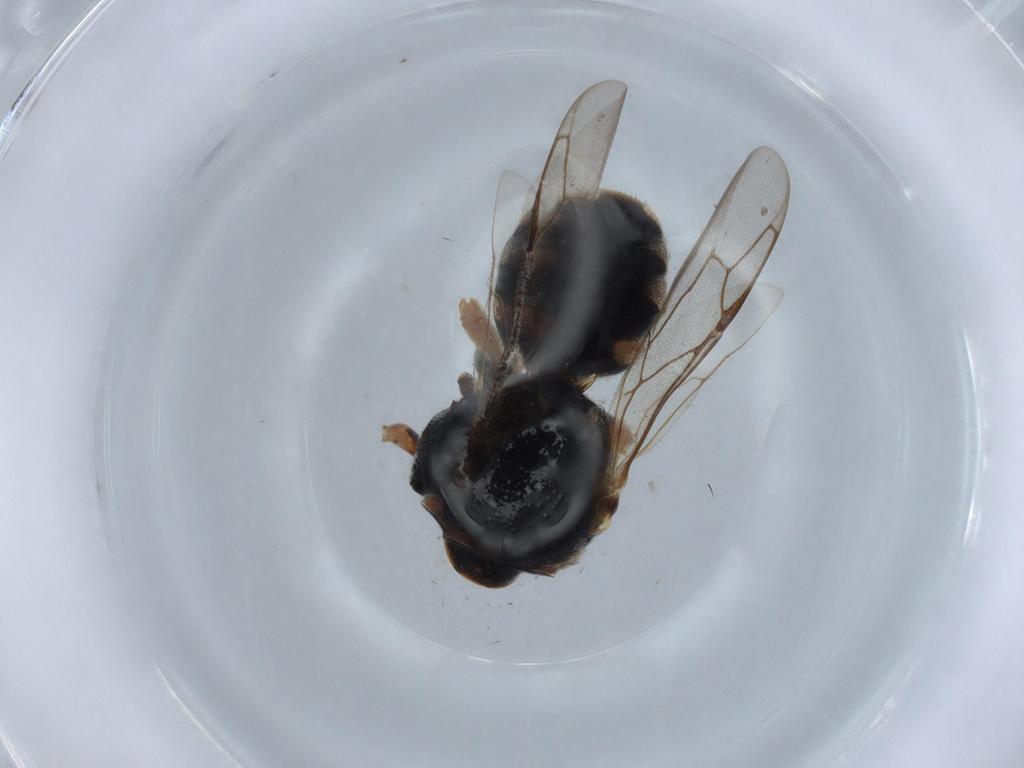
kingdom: Animalia
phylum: Arthropoda
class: Insecta
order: Hymenoptera
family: Crabronidae
